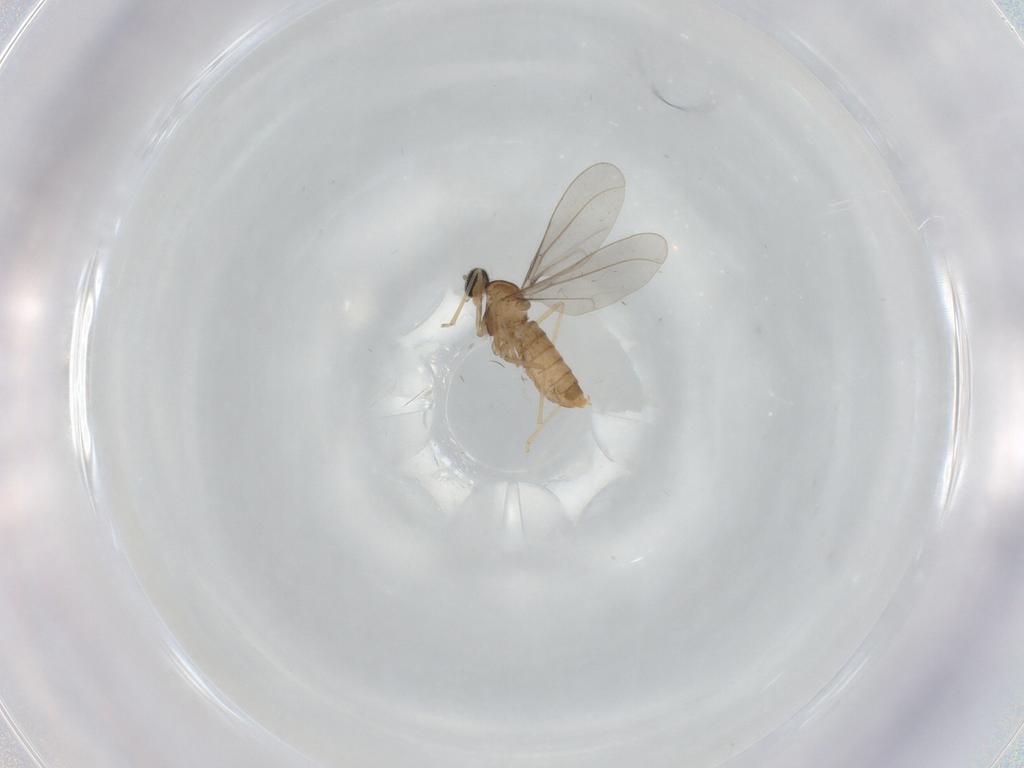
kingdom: Animalia
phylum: Arthropoda
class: Insecta
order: Diptera
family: Cecidomyiidae
